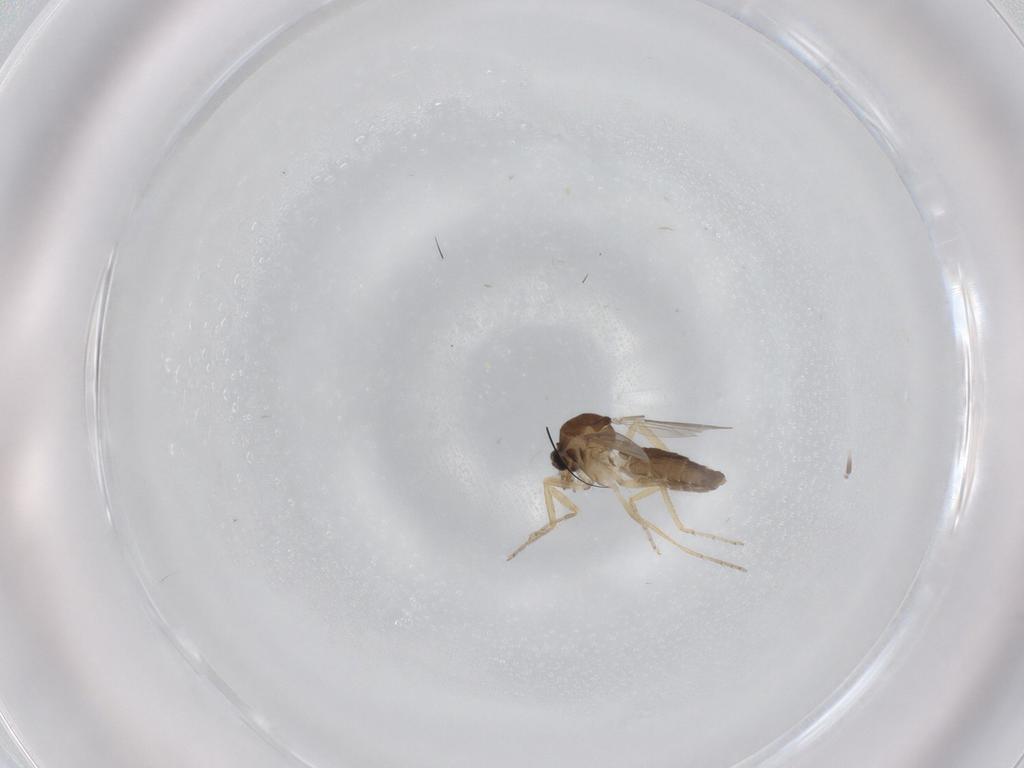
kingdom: Animalia
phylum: Arthropoda
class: Insecta
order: Diptera
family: Ceratopogonidae
